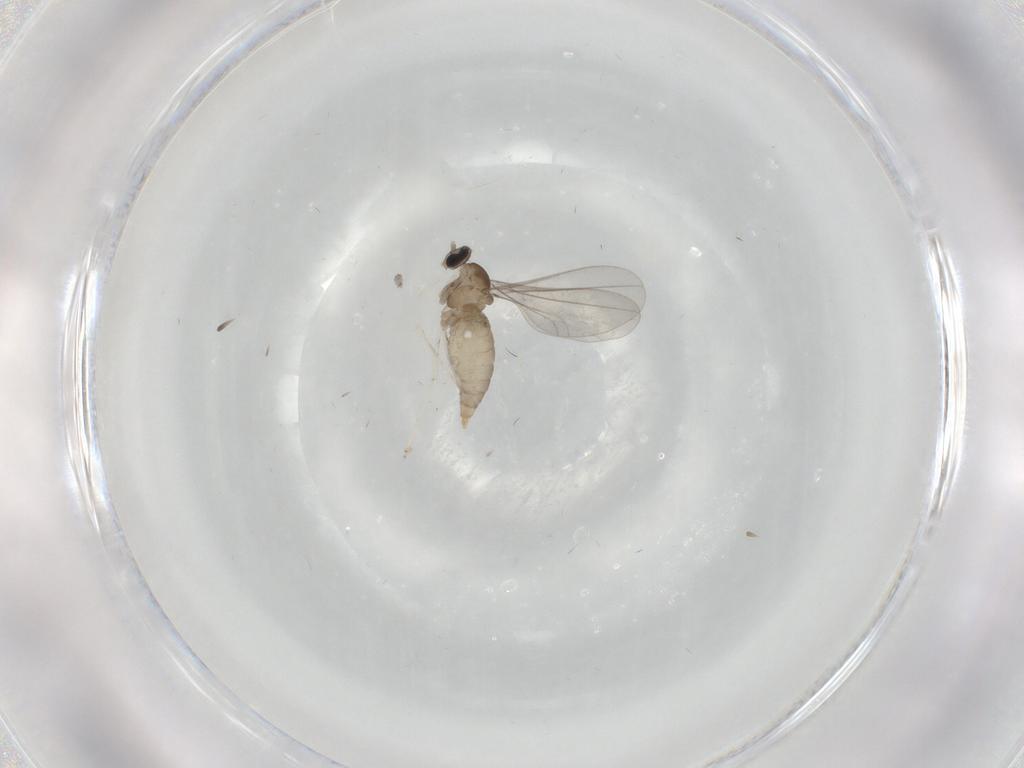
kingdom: Animalia
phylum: Arthropoda
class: Insecta
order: Diptera
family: Cecidomyiidae
